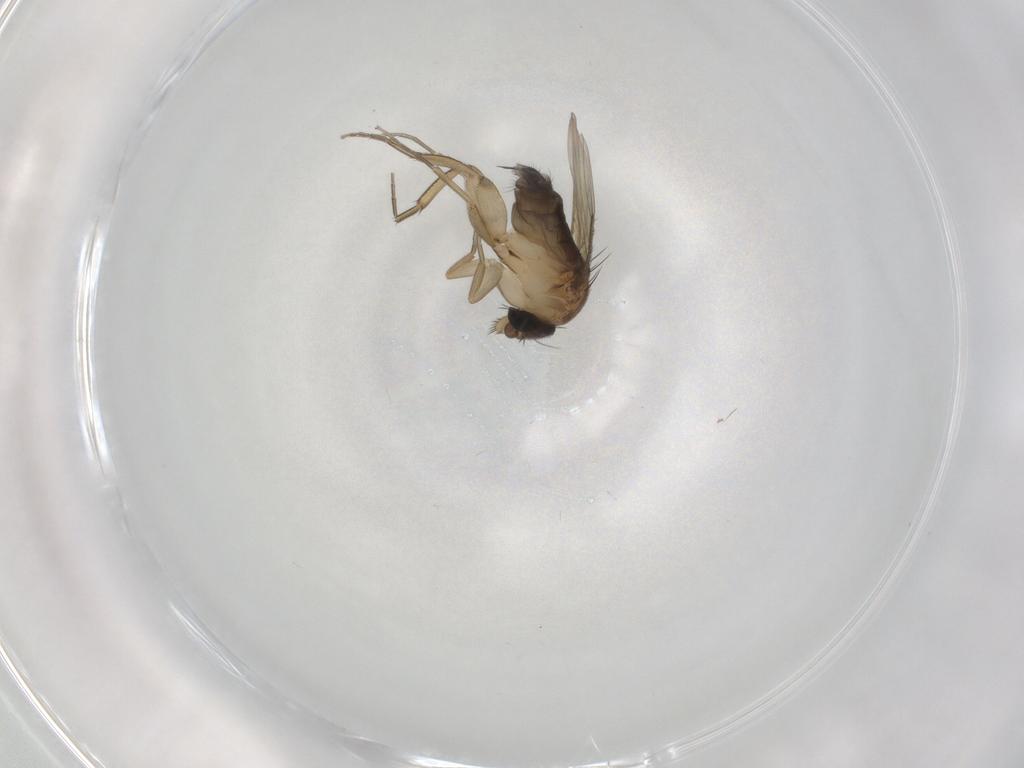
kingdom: Animalia
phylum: Arthropoda
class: Insecta
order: Diptera
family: Phoridae
